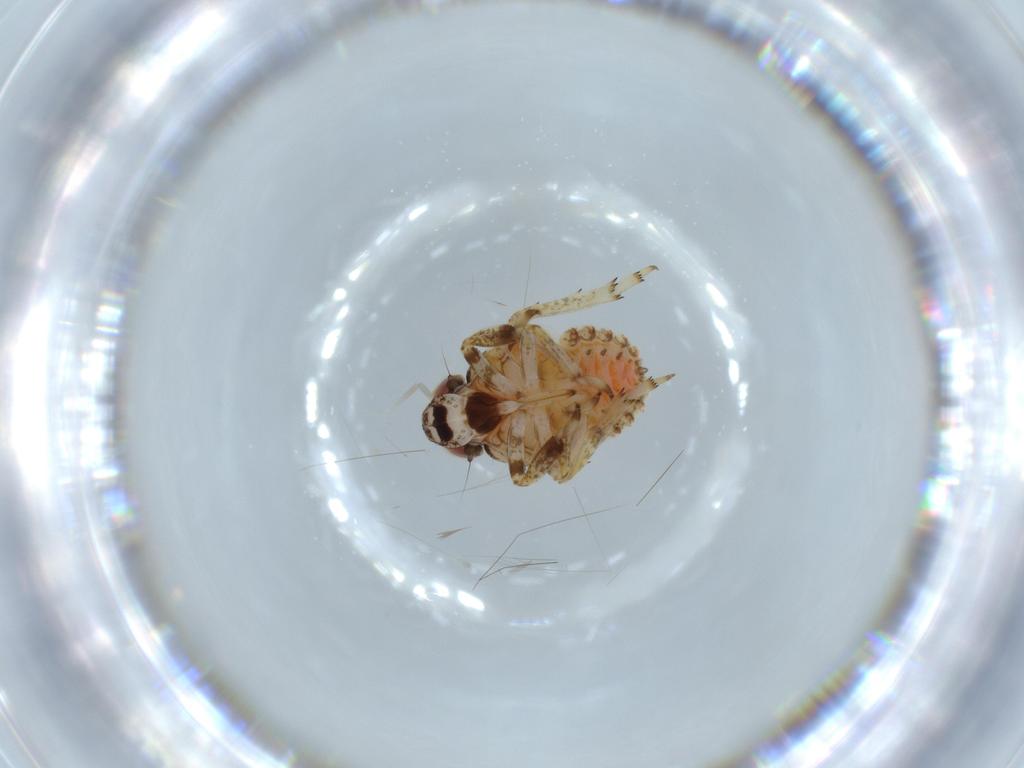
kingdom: Animalia
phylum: Arthropoda
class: Insecta
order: Hemiptera
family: Issidae
